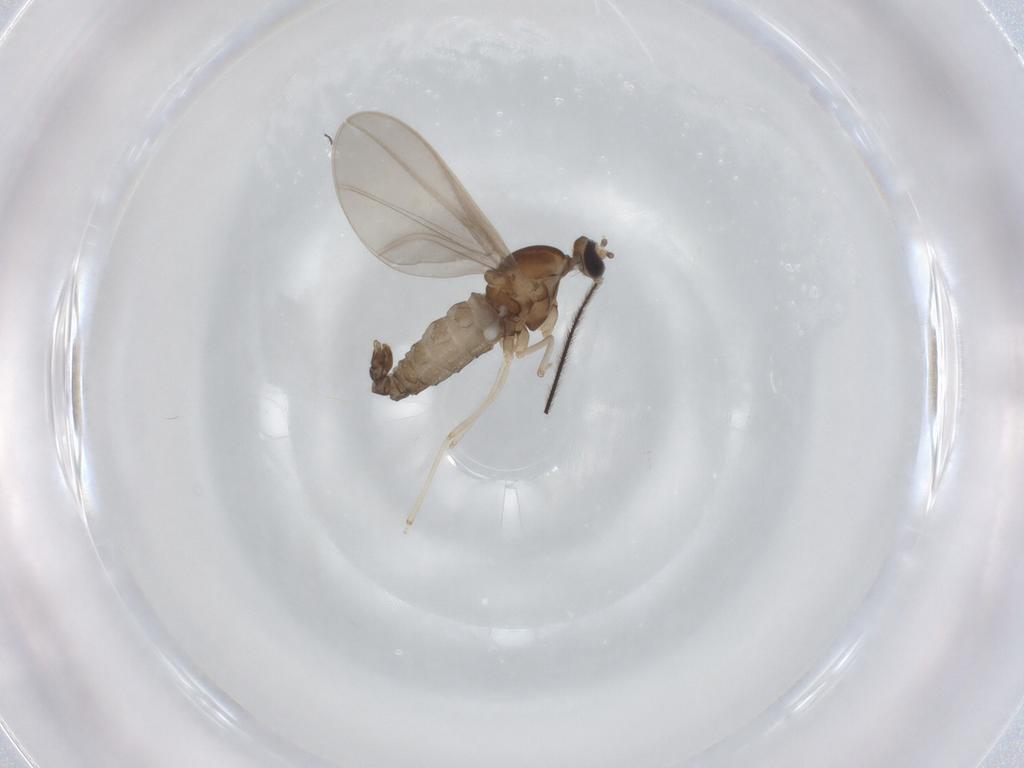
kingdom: Animalia
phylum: Arthropoda
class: Insecta
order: Diptera
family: Cecidomyiidae
